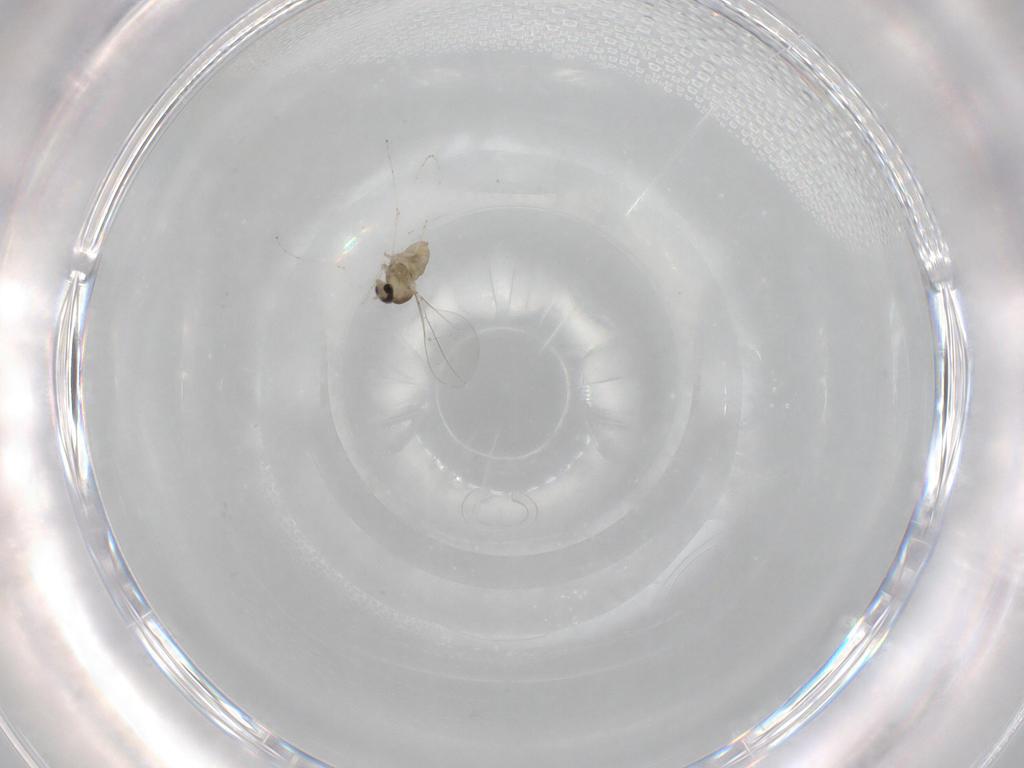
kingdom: Animalia
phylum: Arthropoda
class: Insecta
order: Diptera
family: Cecidomyiidae
